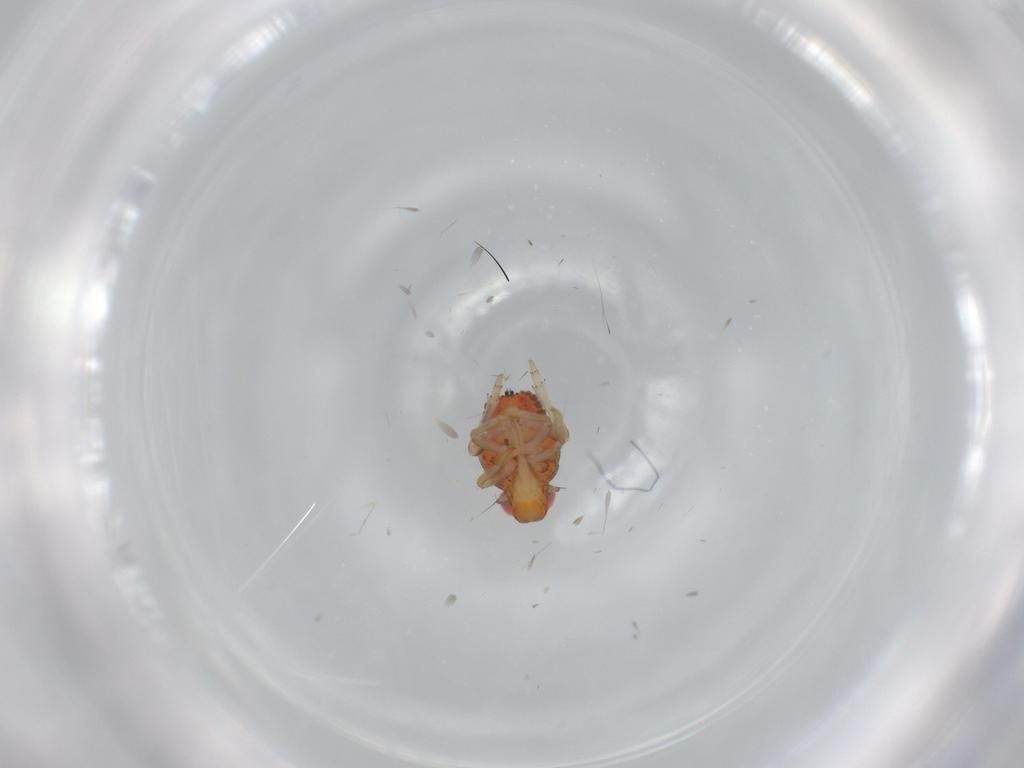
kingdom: Animalia
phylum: Arthropoda
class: Insecta
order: Hemiptera
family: Issidae
